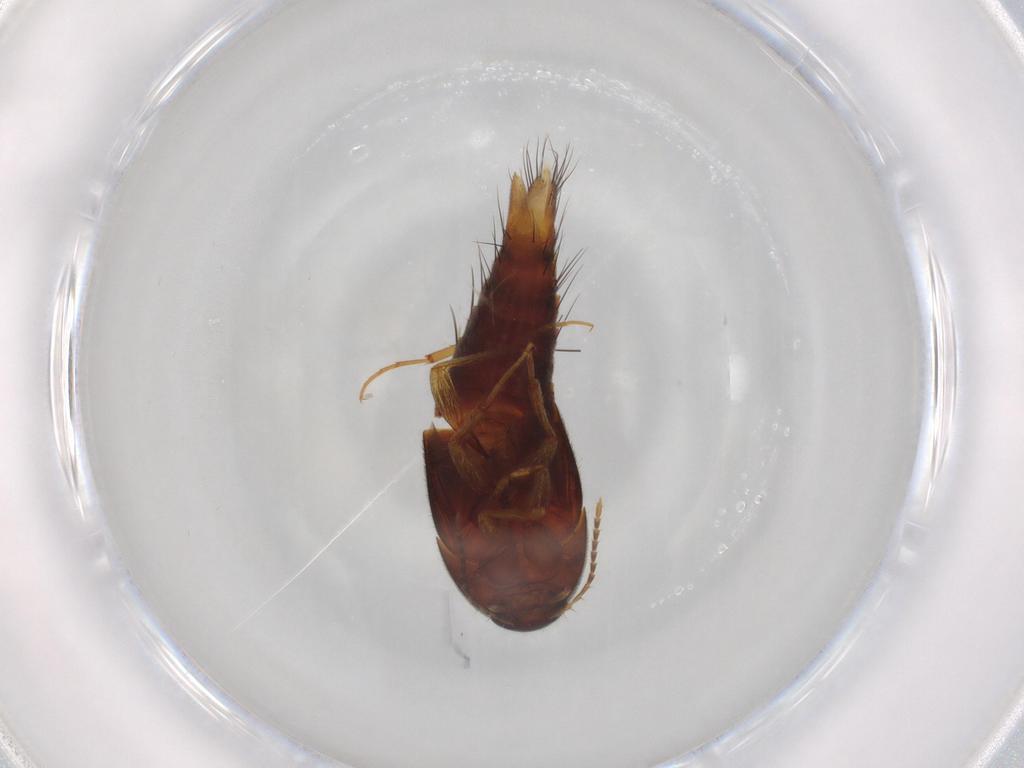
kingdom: Animalia
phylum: Arthropoda
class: Insecta
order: Coleoptera
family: Staphylinidae
